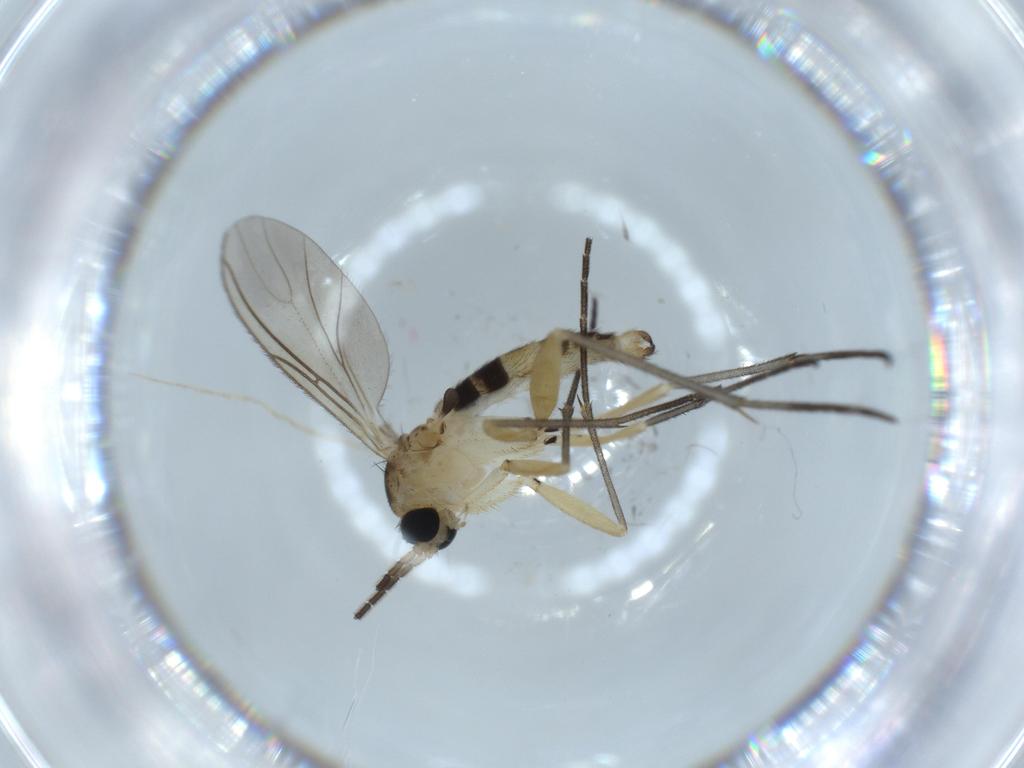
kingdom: Animalia
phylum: Arthropoda
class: Insecta
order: Diptera
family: Sciaridae
